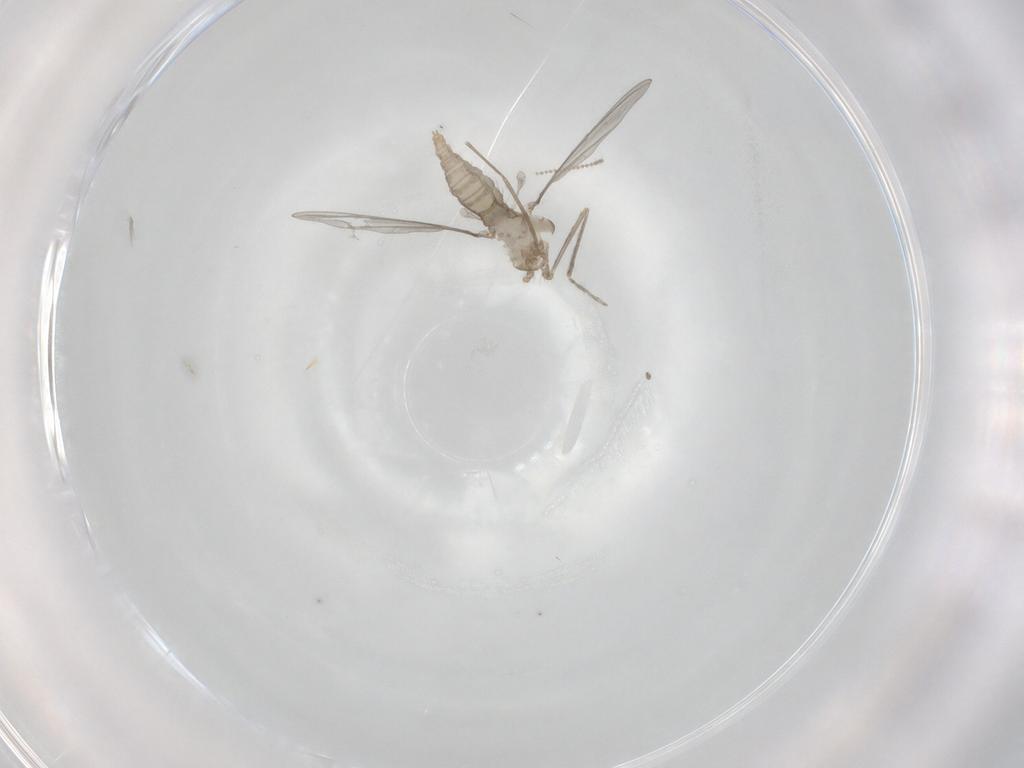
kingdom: Animalia
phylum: Arthropoda
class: Insecta
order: Diptera
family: Cecidomyiidae
